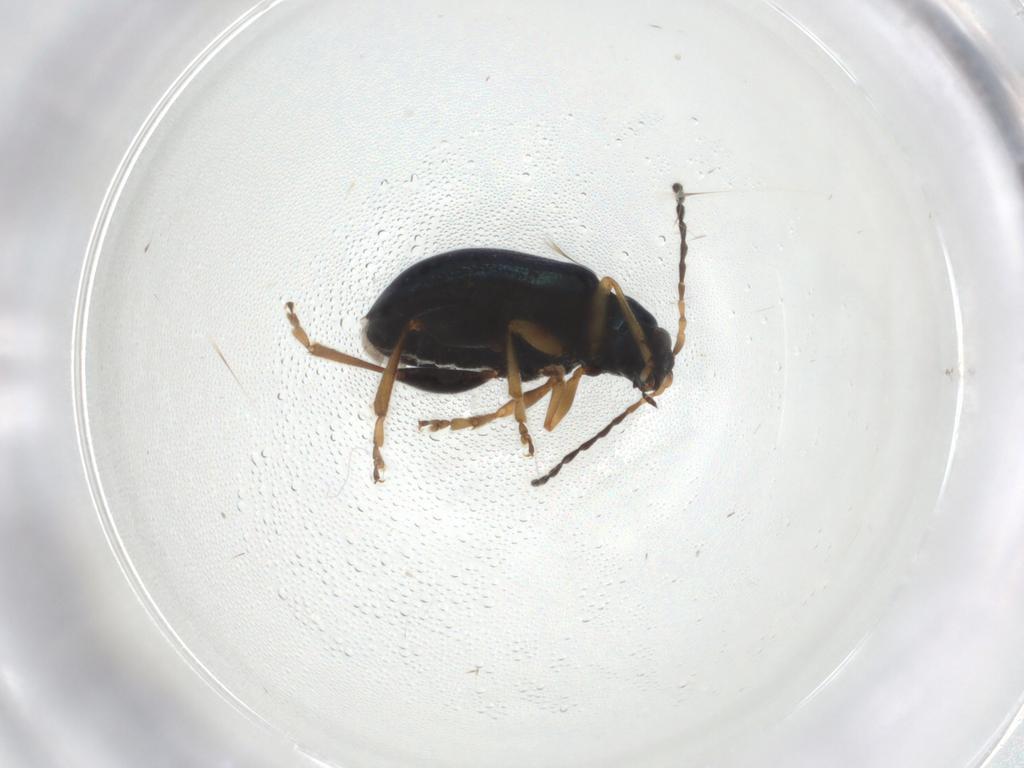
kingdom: Animalia
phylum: Arthropoda
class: Insecta
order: Coleoptera
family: Chrysomelidae
